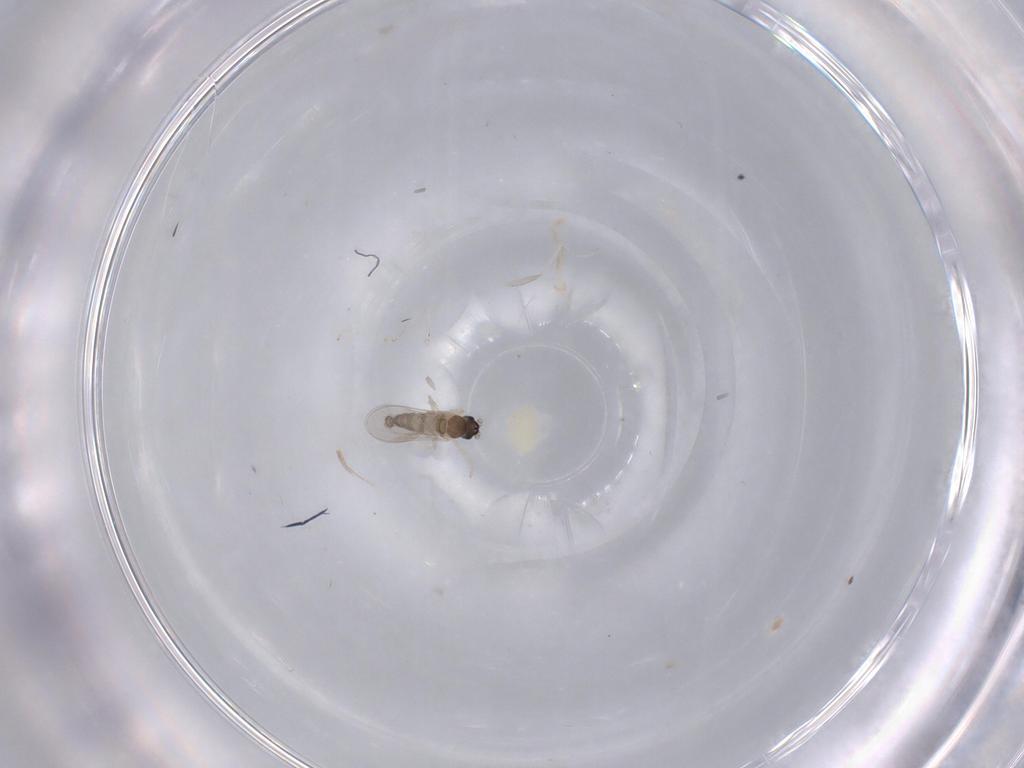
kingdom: Animalia
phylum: Arthropoda
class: Insecta
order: Diptera
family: Cecidomyiidae
